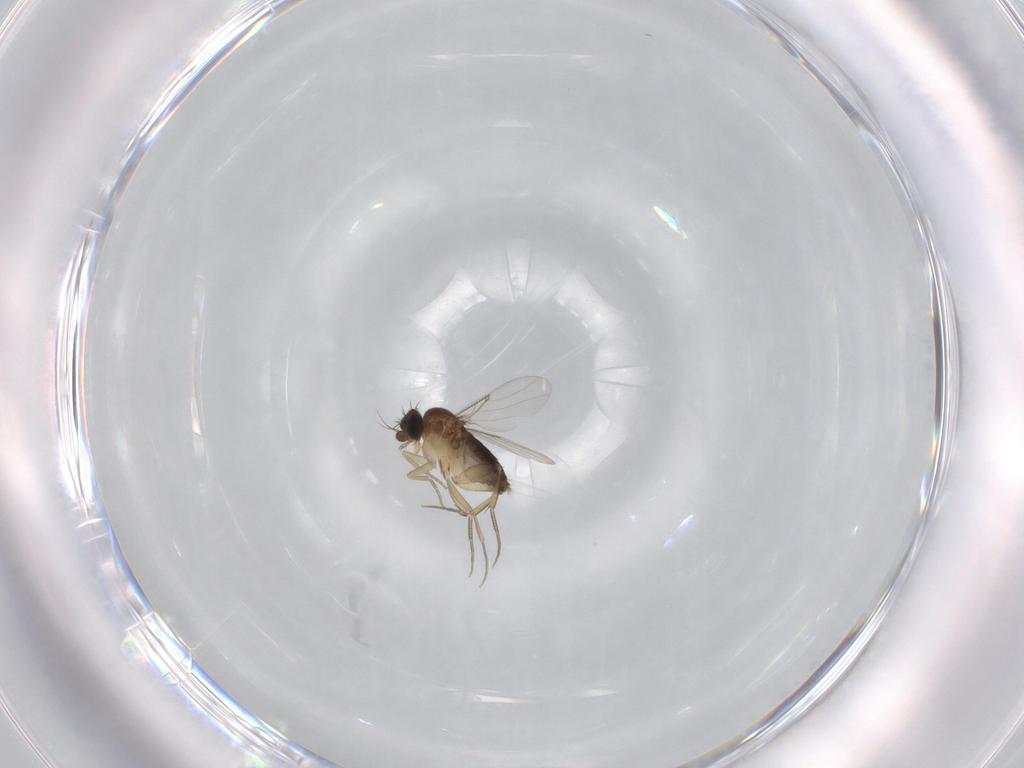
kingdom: Animalia
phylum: Arthropoda
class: Insecta
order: Diptera
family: Phoridae
